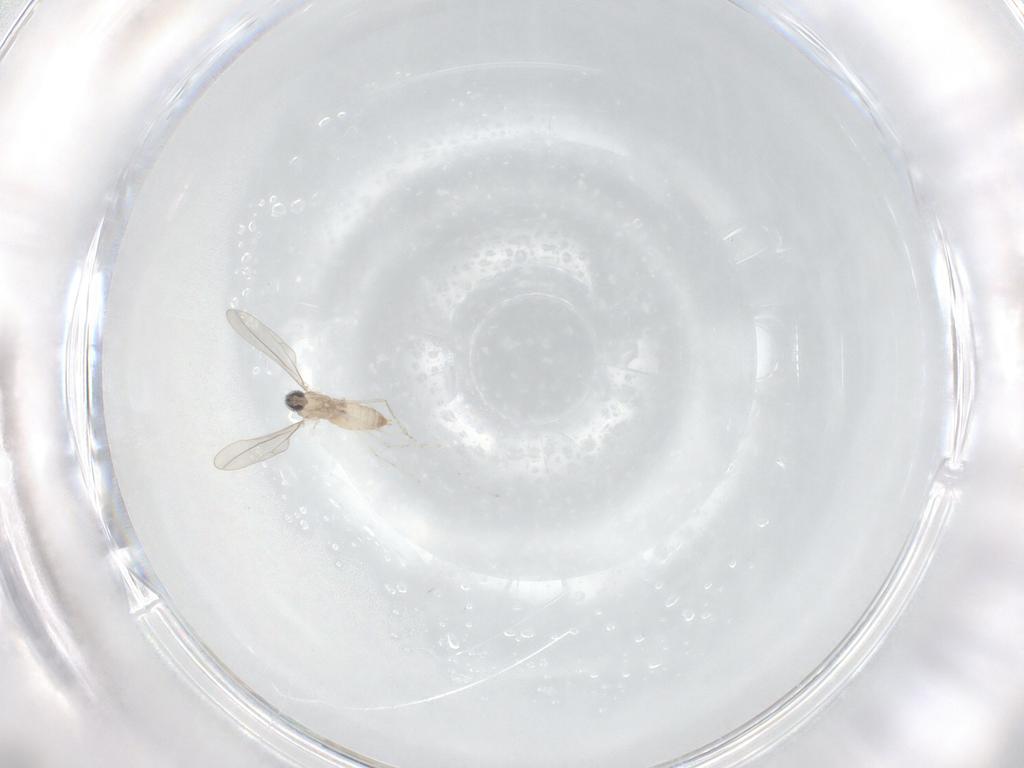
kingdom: Animalia
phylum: Arthropoda
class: Insecta
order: Diptera
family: Cecidomyiidae
